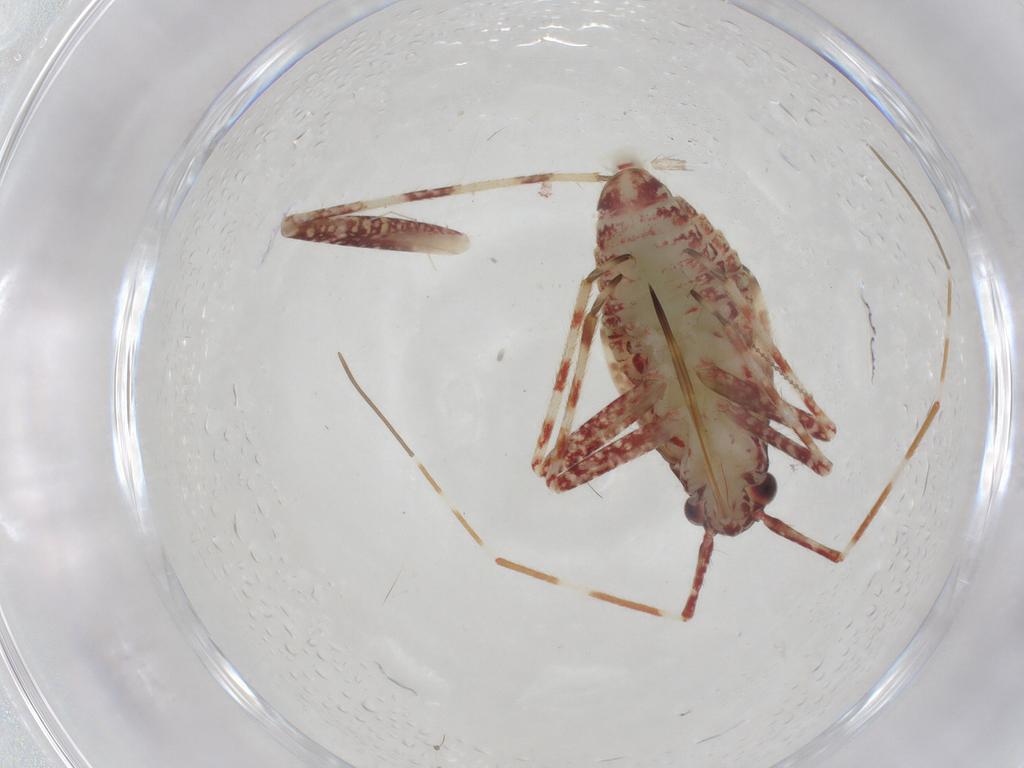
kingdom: Animalia
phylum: Arthropoda
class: Insecta
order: Hemiptera
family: Miridae
